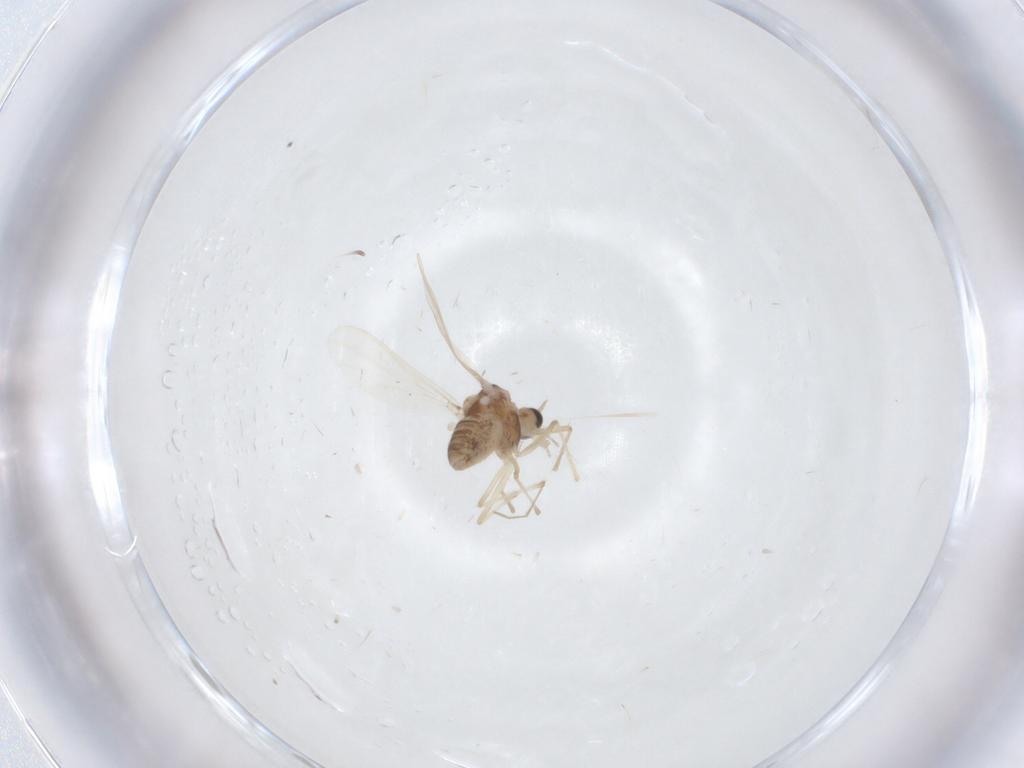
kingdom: Animalia
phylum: Arthropoda
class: Insecta
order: Diptera
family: Chironomidae
